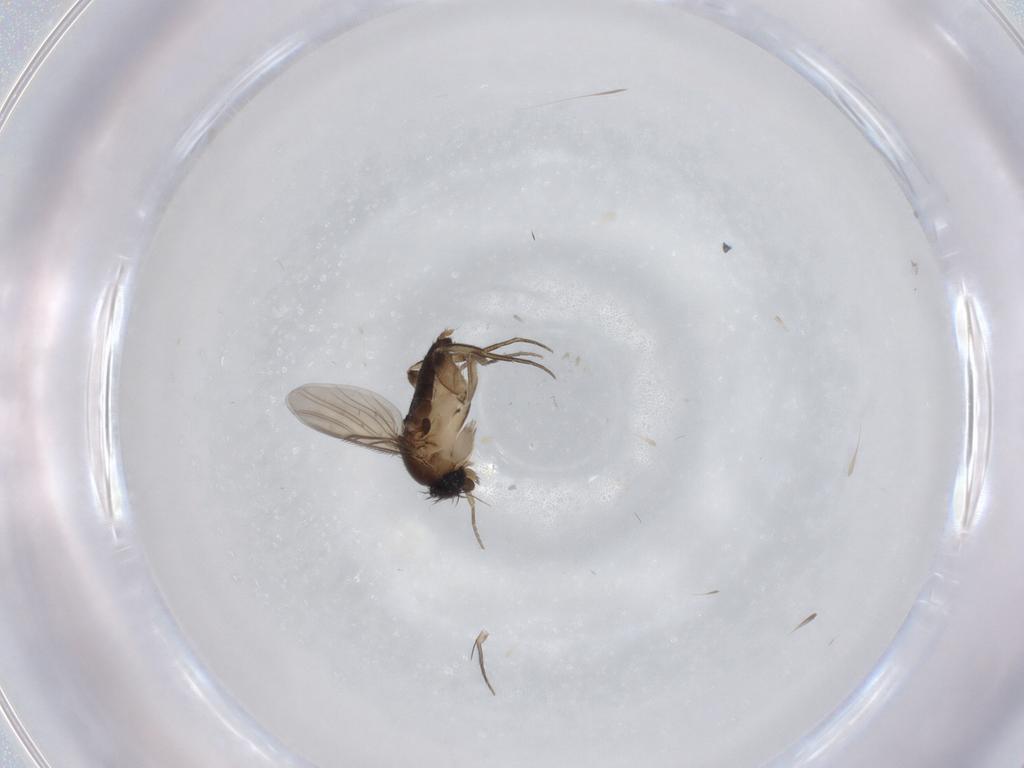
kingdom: Animalia
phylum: Arthropoda
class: Insecta
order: Diptera
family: Phoridae
